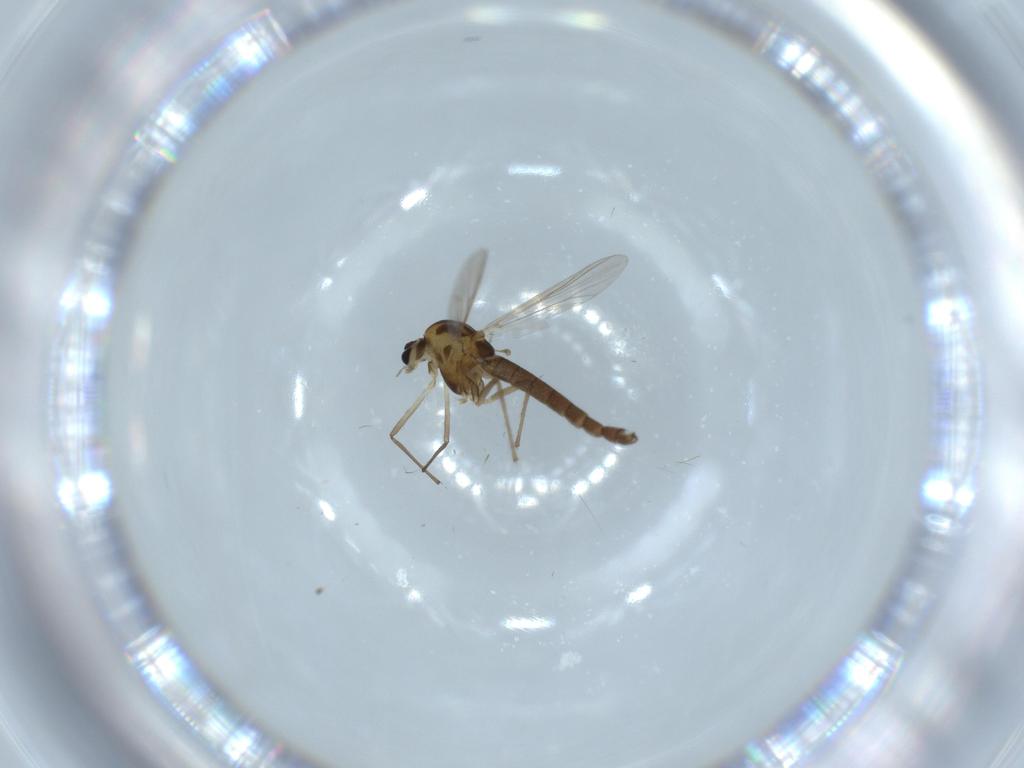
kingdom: Animalia
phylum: Arthropoda
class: Insecta
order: Diptera
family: Chironomidae
